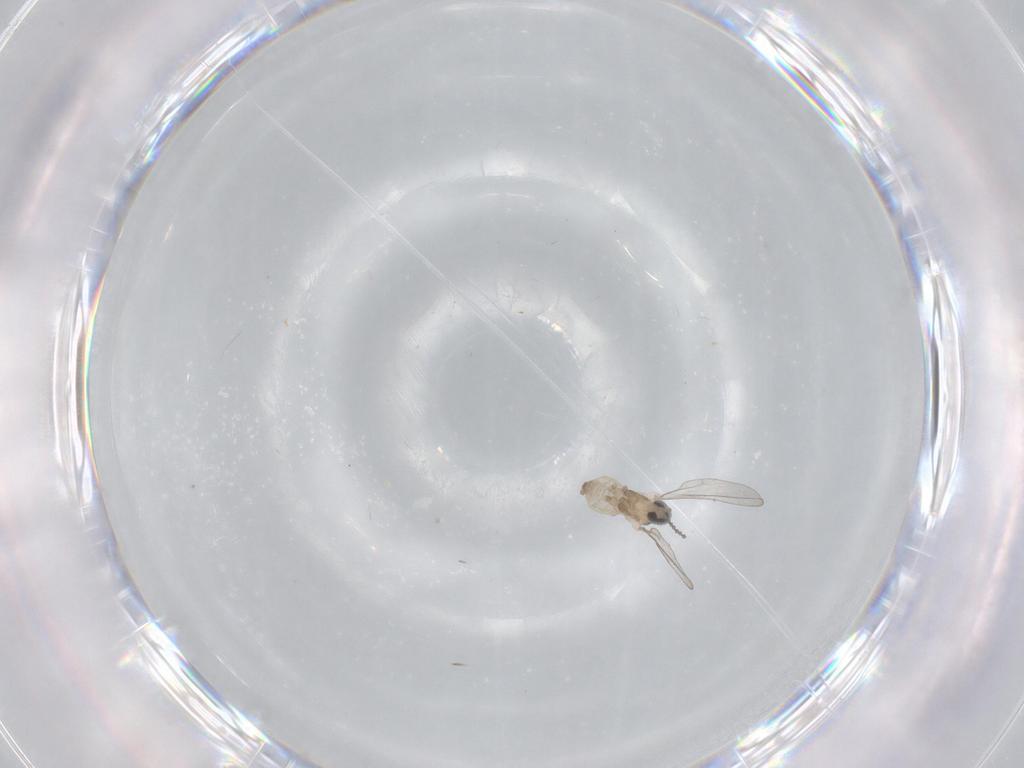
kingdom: Animalia
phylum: Arthropoda
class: Insecta
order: Diptera
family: Cecidomyiidae
